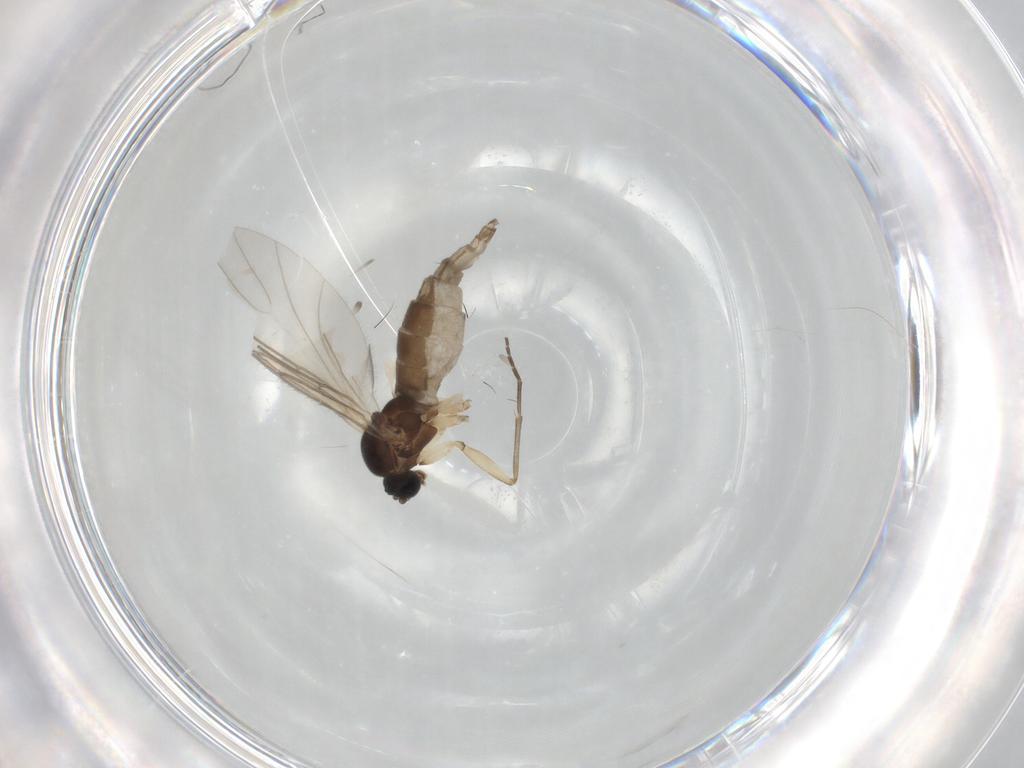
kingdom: Animalia
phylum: Arthropoda
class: Insecta
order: Diptera
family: Sciaridae
